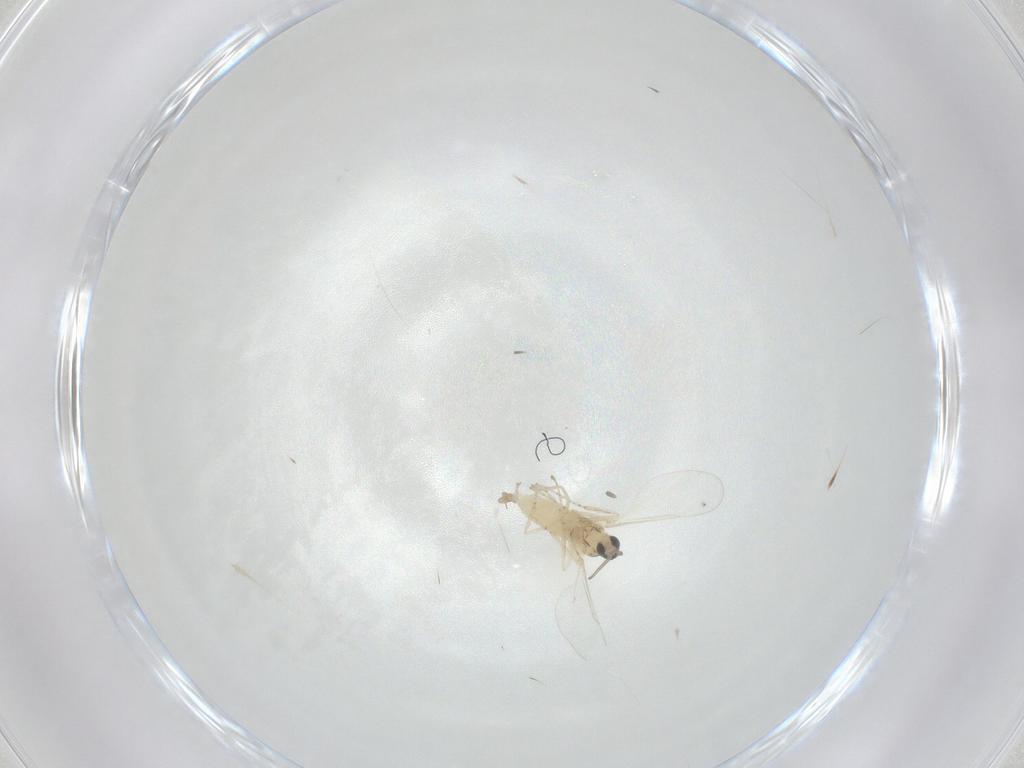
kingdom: Animalia
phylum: Arthropoda
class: Insecta
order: Diptera
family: Cecidomyiidae
